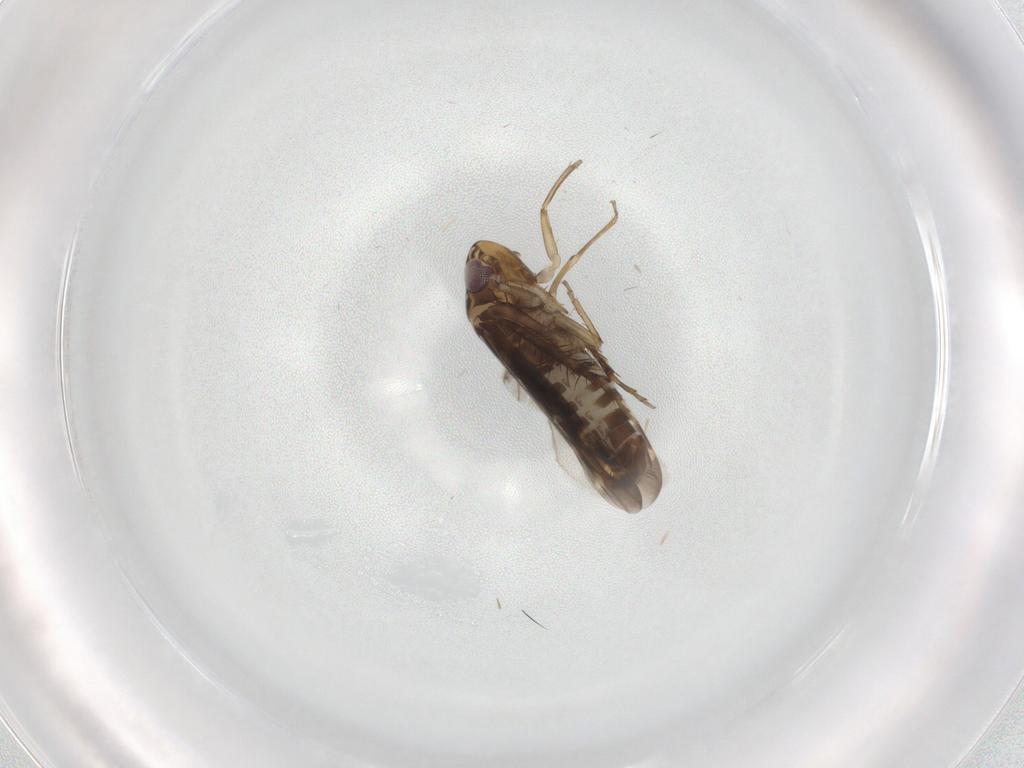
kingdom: Animalia
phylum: Arthropoda
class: Insecta
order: Hemiptera
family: Cicadellidae
